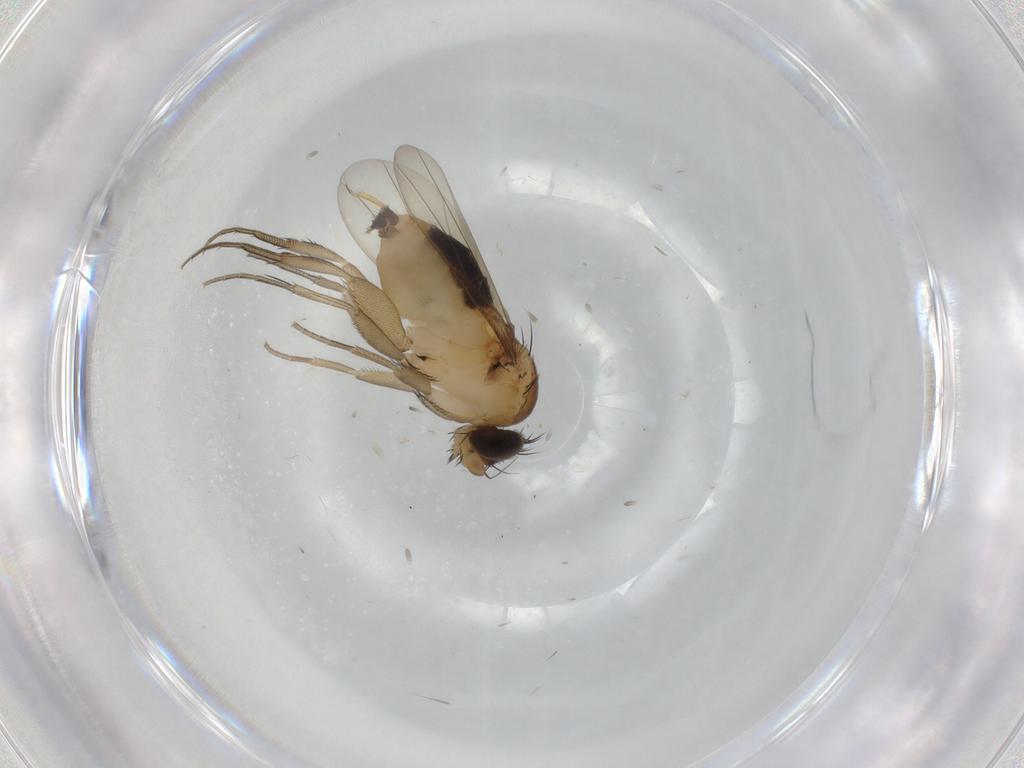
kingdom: Animalia
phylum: Arthropoda
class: Insecta
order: Diptera
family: Phoridae
